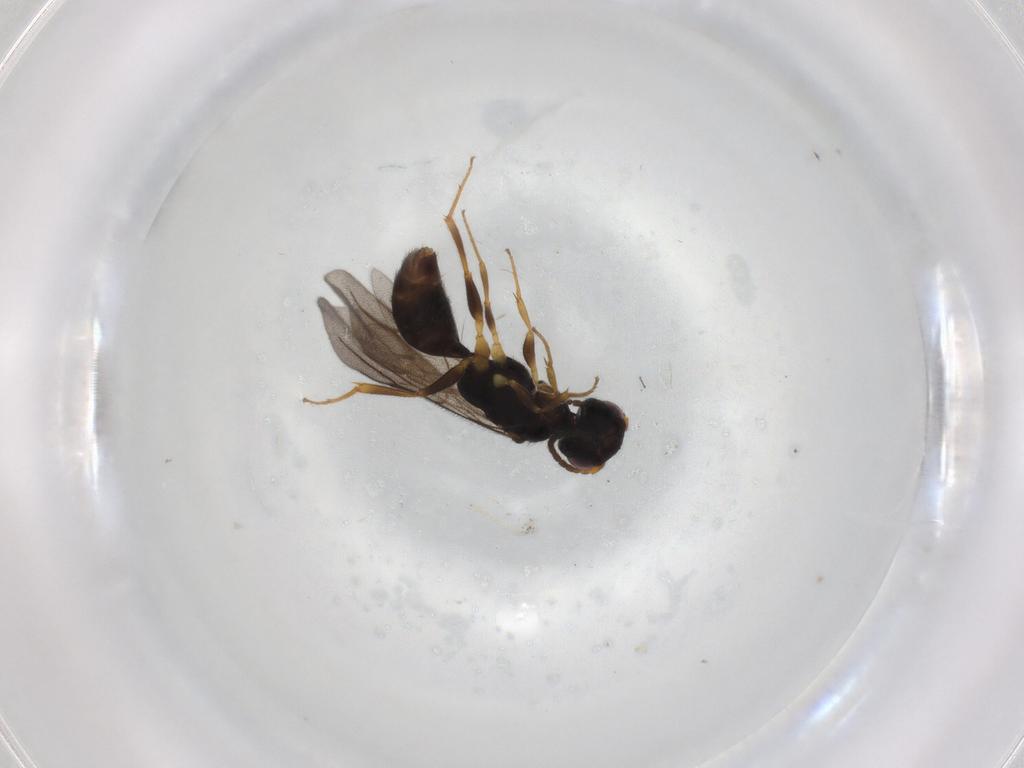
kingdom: Animalia
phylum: Arthropoda
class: Insecta
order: Hymenoptera
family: Bethylidae
